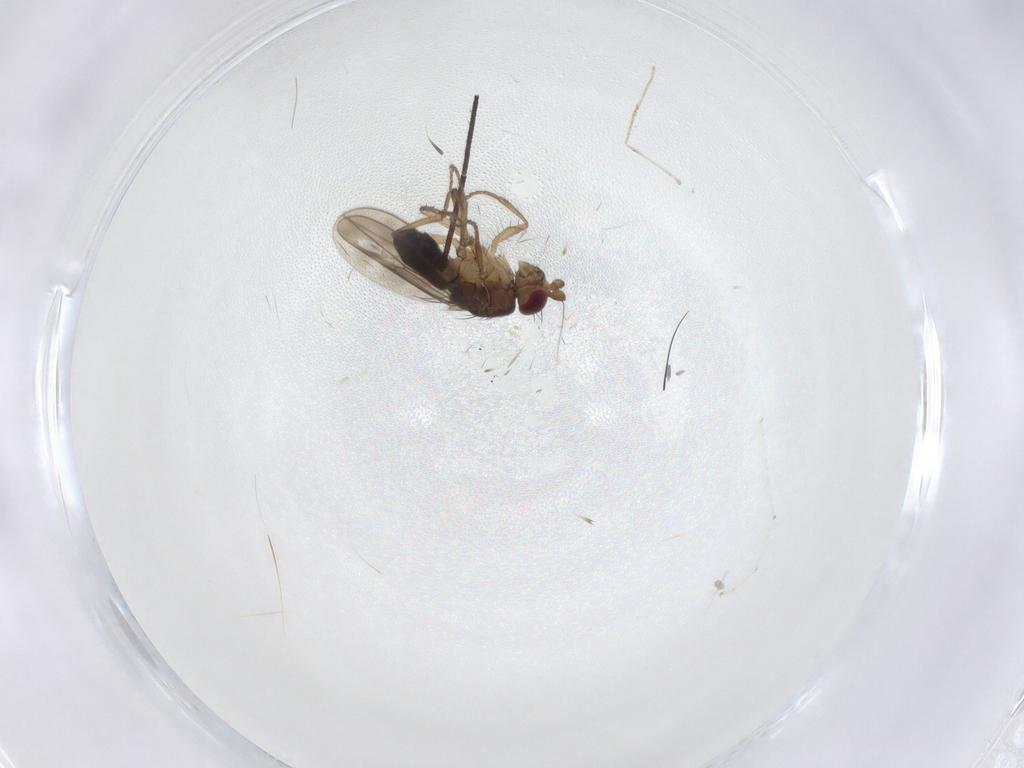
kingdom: Animalia
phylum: Arthropoda
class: Insecta
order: Diptera
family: Sphaeroceridae
